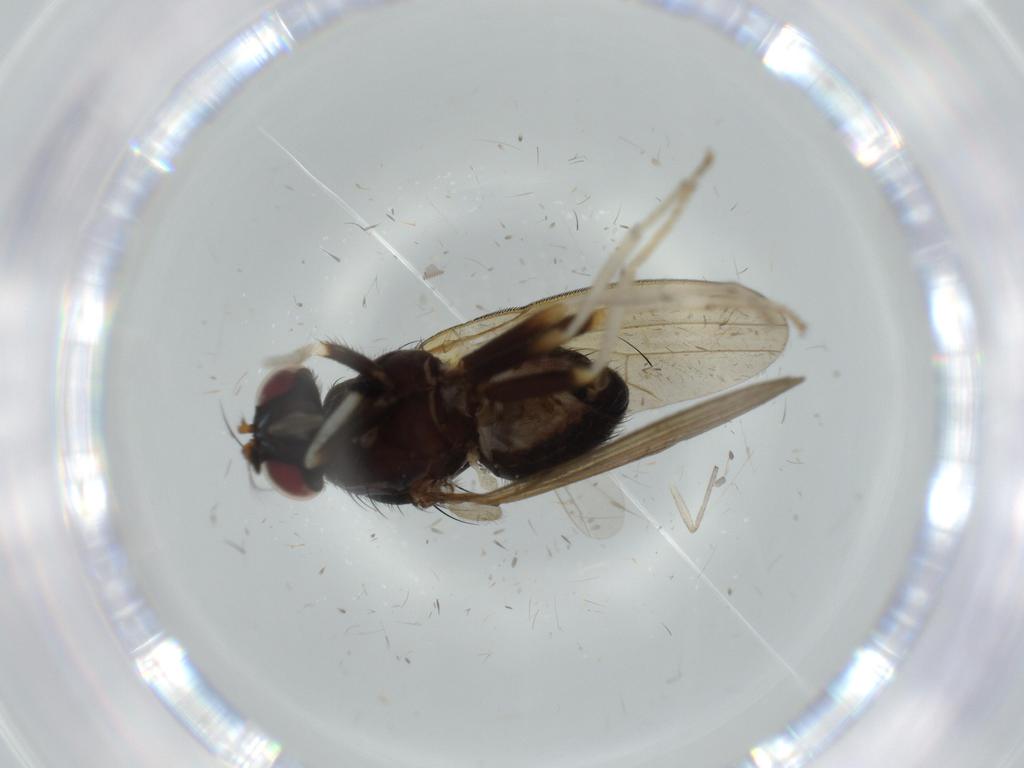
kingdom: Animalia
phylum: Arthropoda
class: Insecta
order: Diptera
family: Lauxaniidae
